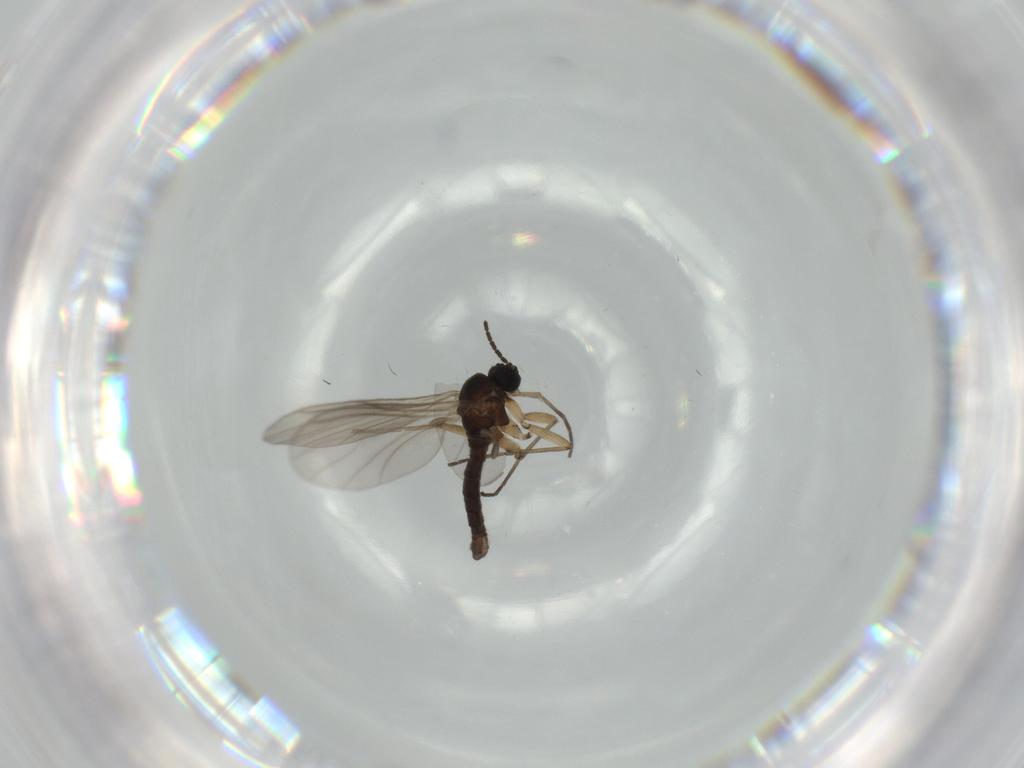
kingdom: Animalia
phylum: Arthropoda
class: Insecta
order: Diptera
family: Sciaridae
